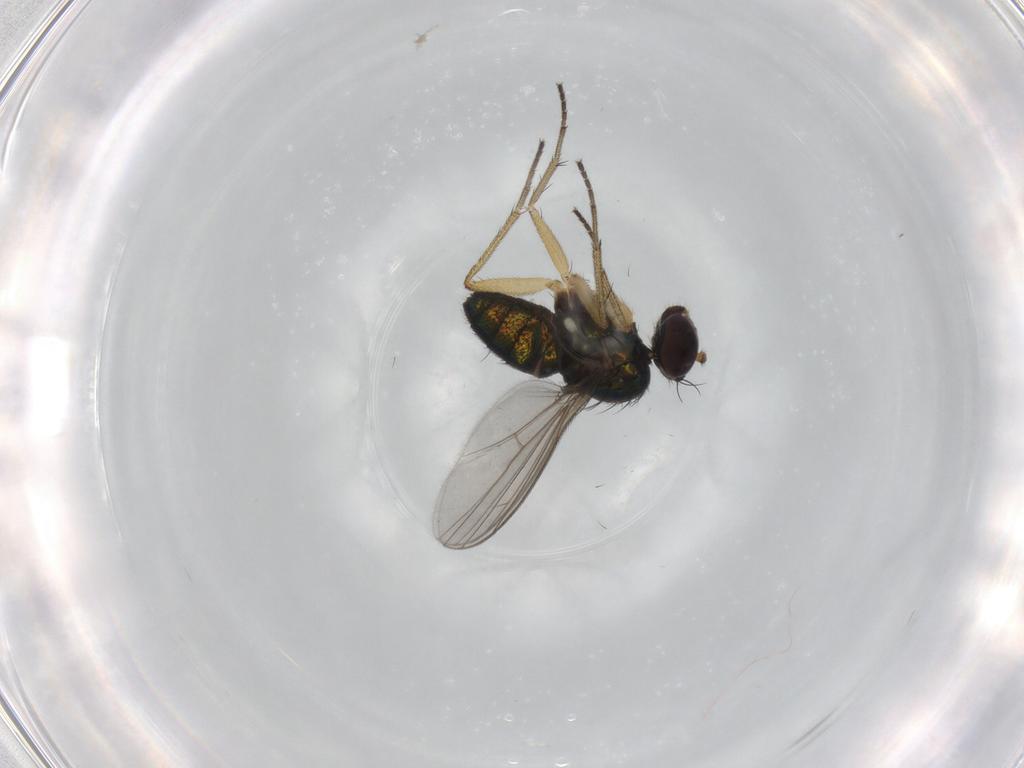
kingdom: Animalia
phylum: Arthropoda
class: Insecta
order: Diptera
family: Dolichopodidae
